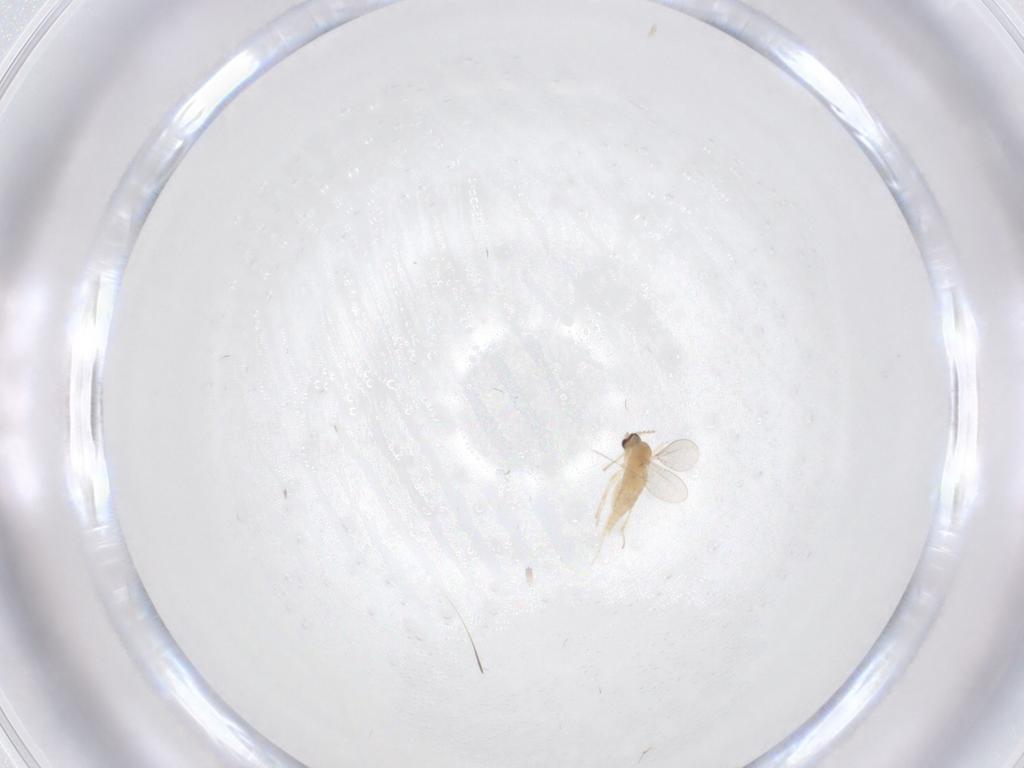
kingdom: Animalia
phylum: Arthropoda
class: Insecta
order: Diptera
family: Cecidomyiidae
